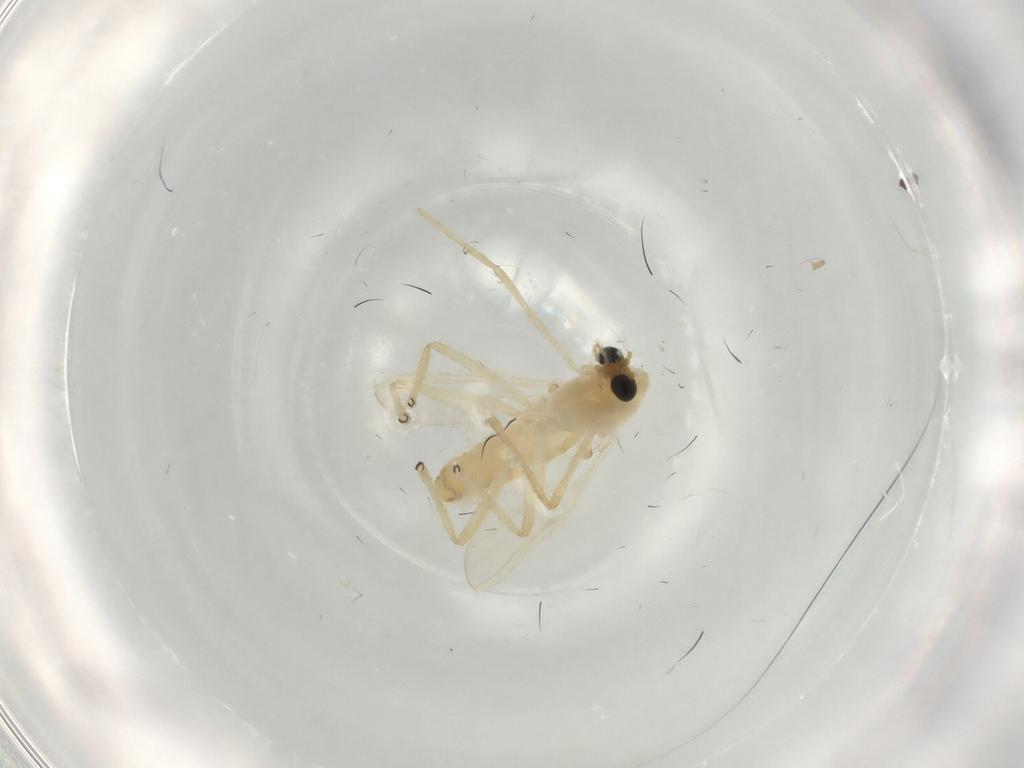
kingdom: Animalia
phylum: Arthropoda
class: Insecta
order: Diptera
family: Chironomidae
